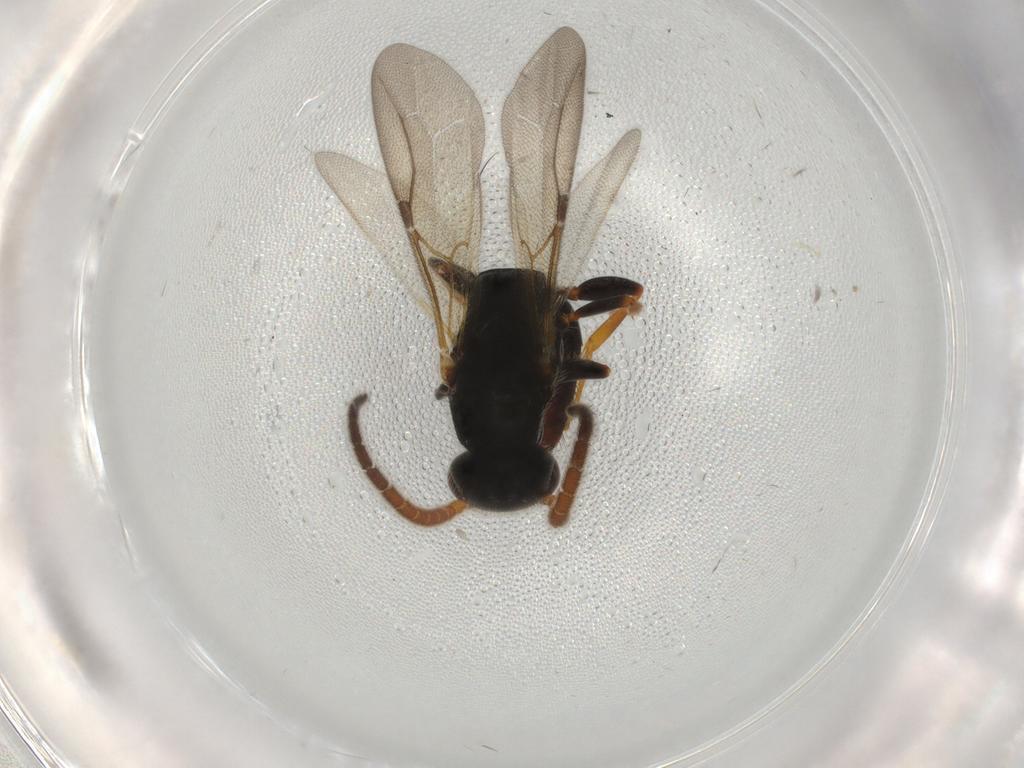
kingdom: Animalia
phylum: Arthropoda
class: Insecta
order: Hymenoptera
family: Bethylidae
